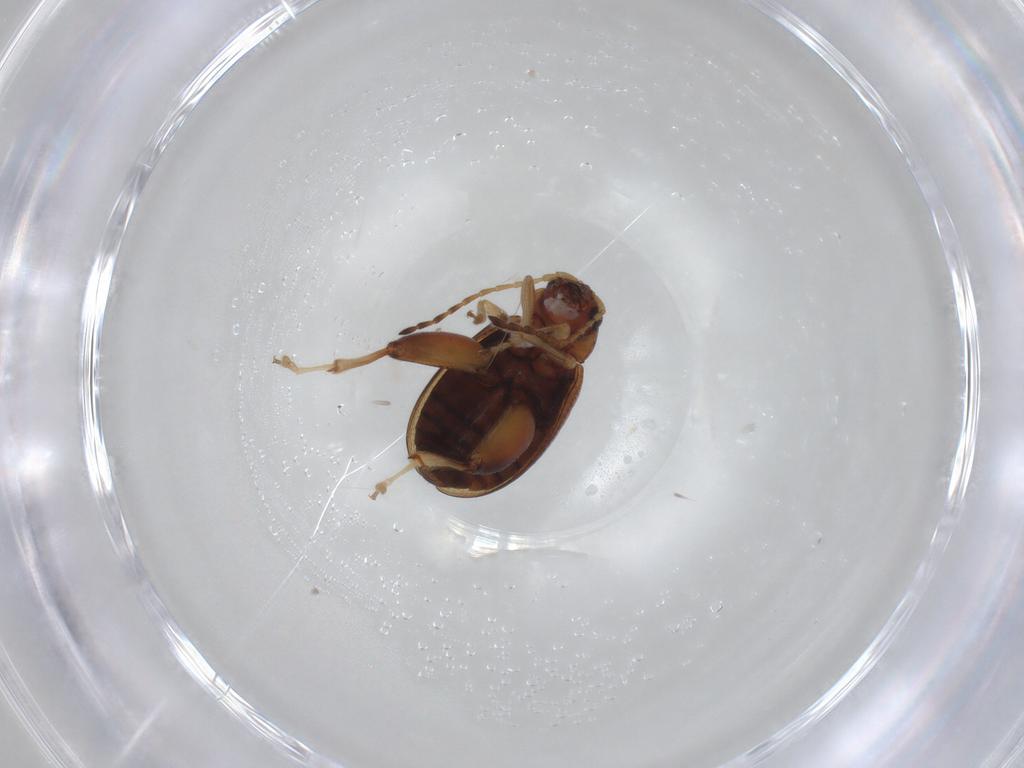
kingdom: Animalia
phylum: Arthropoda
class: Insecta
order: Coleoptera
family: Chrysomelidae
